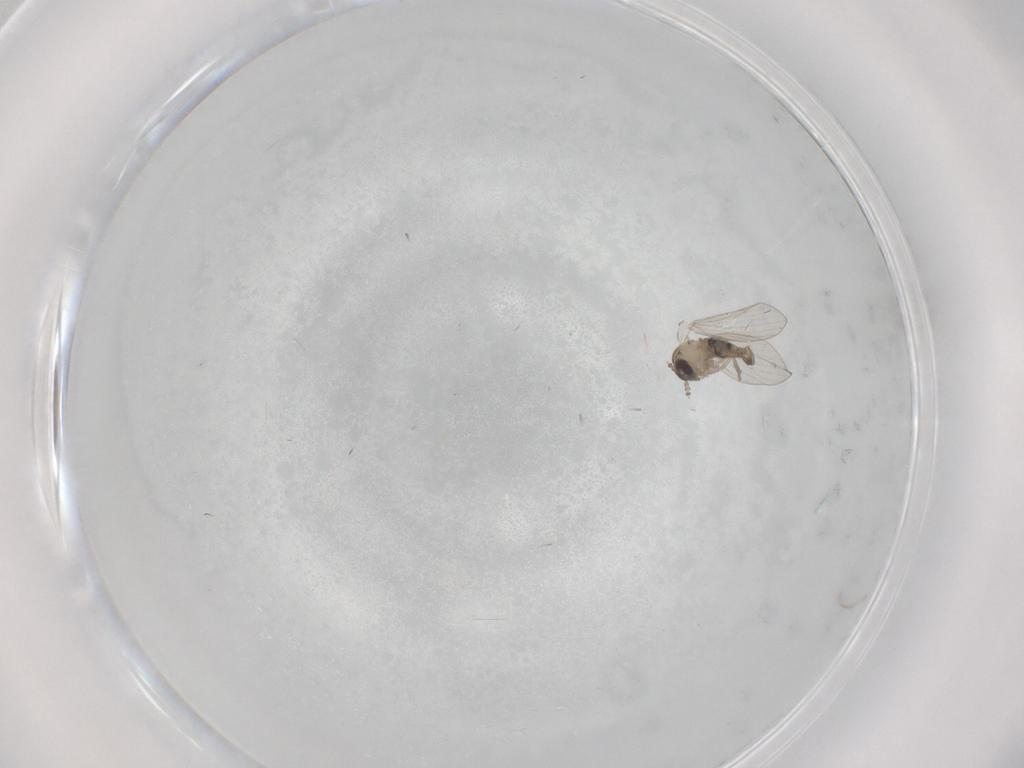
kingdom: Animalia
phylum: Arthropoda
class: Insecta
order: Diptera
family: Psychodidae
